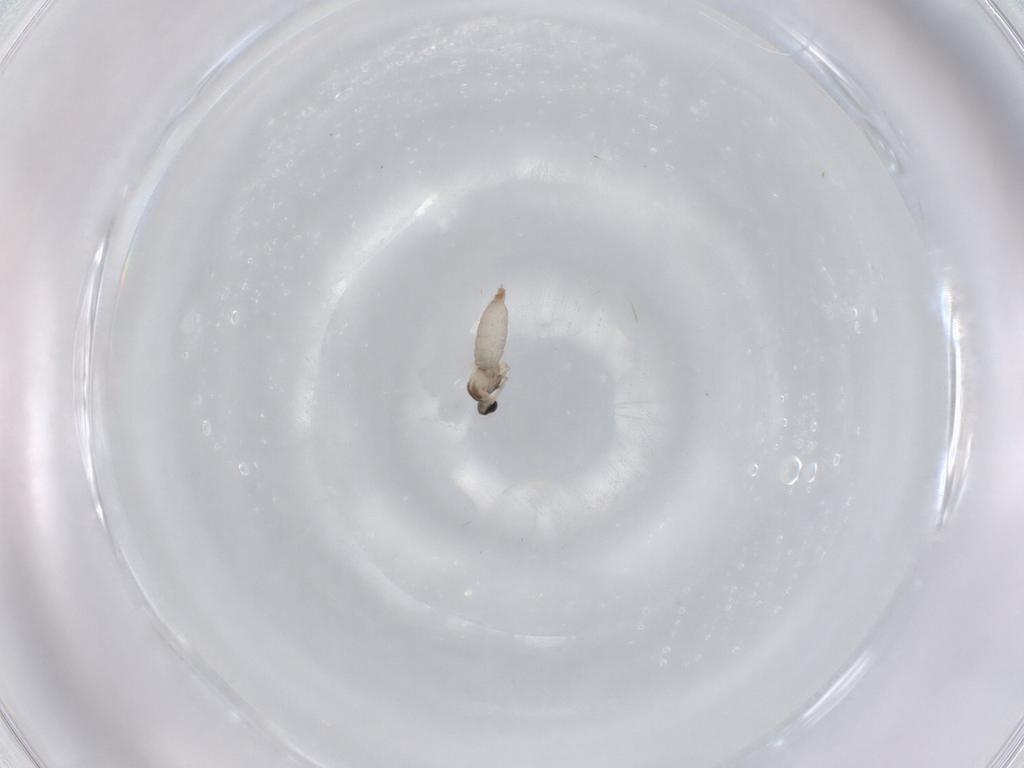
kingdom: Animalia
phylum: Arthropoda
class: Insecta
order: Diptera
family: Cecidomyiidae
